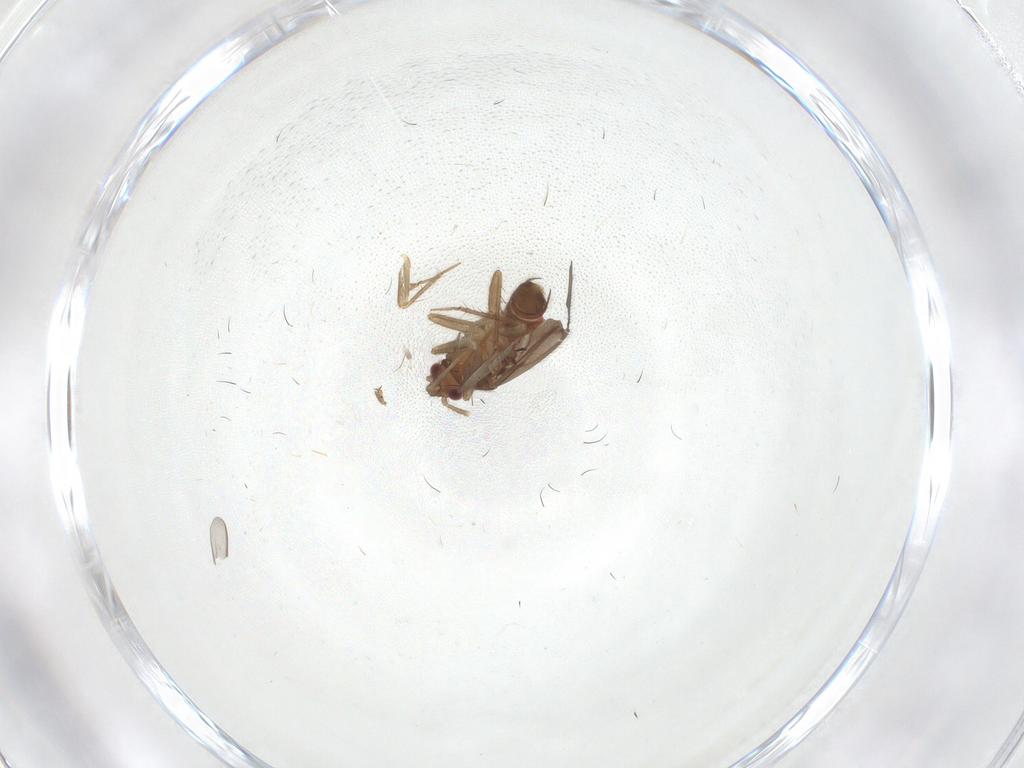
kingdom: Animalia
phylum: Arthropoda
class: Insecta
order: Hemiptera
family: Ceratocombidae
